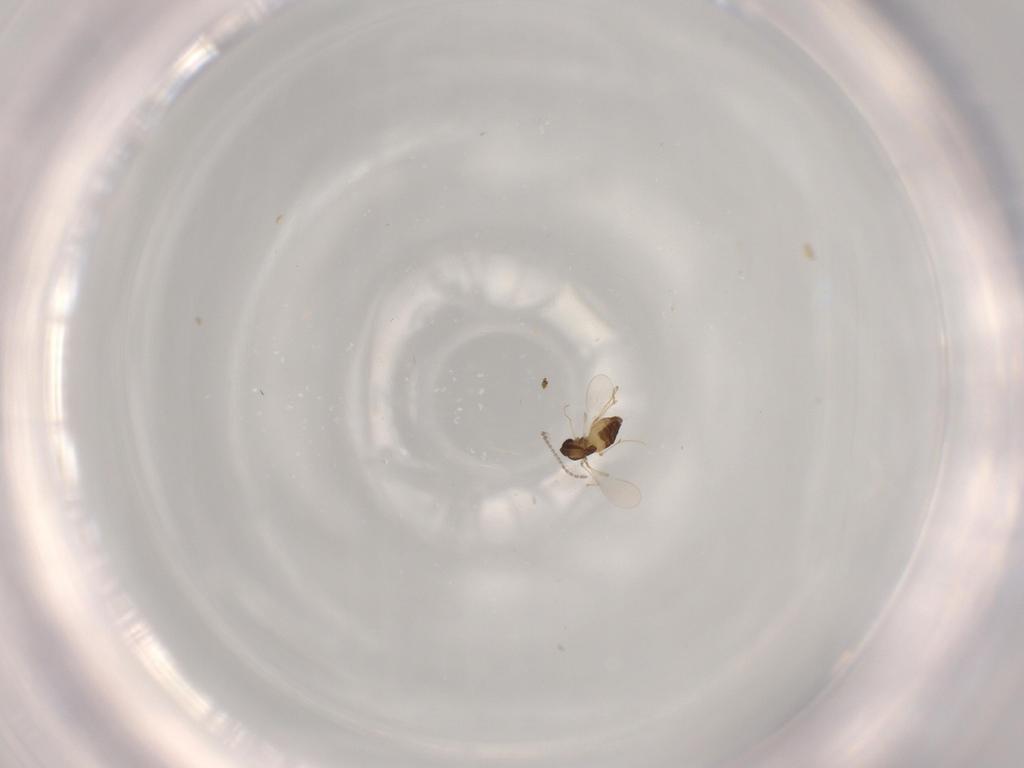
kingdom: Animalia
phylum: Arthropoda
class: Insecta
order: Diptera
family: Chironomidae
